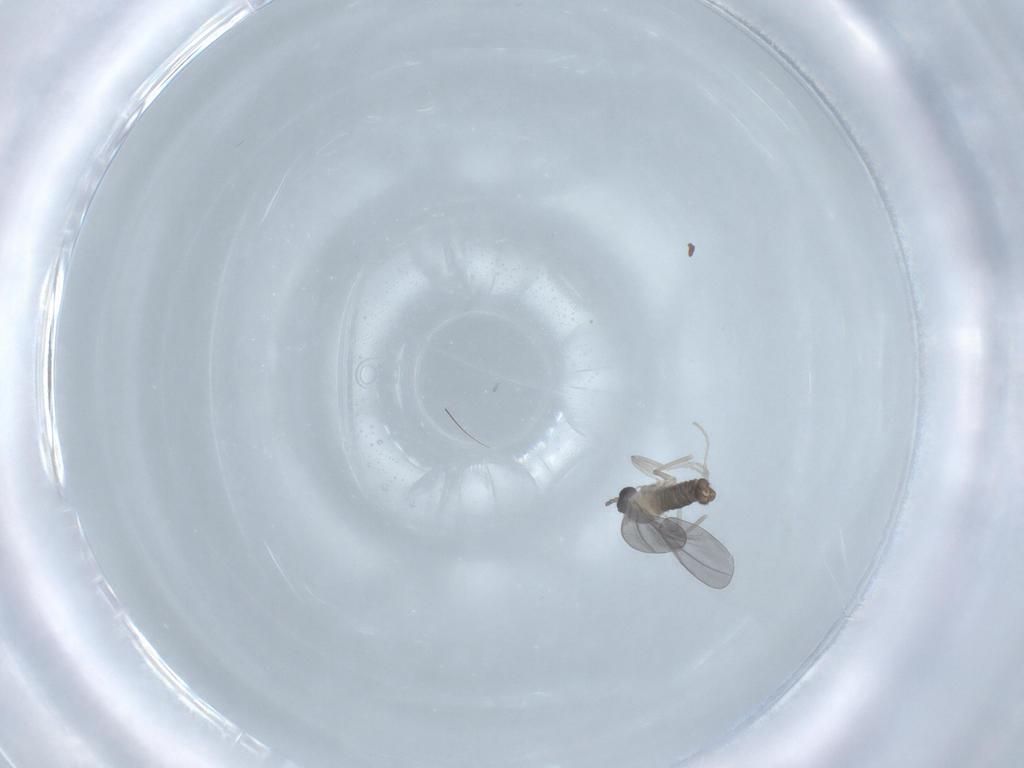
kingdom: Animalia
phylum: Arthropoda
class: Insecta
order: Diptera
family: Cecidomyiidae
